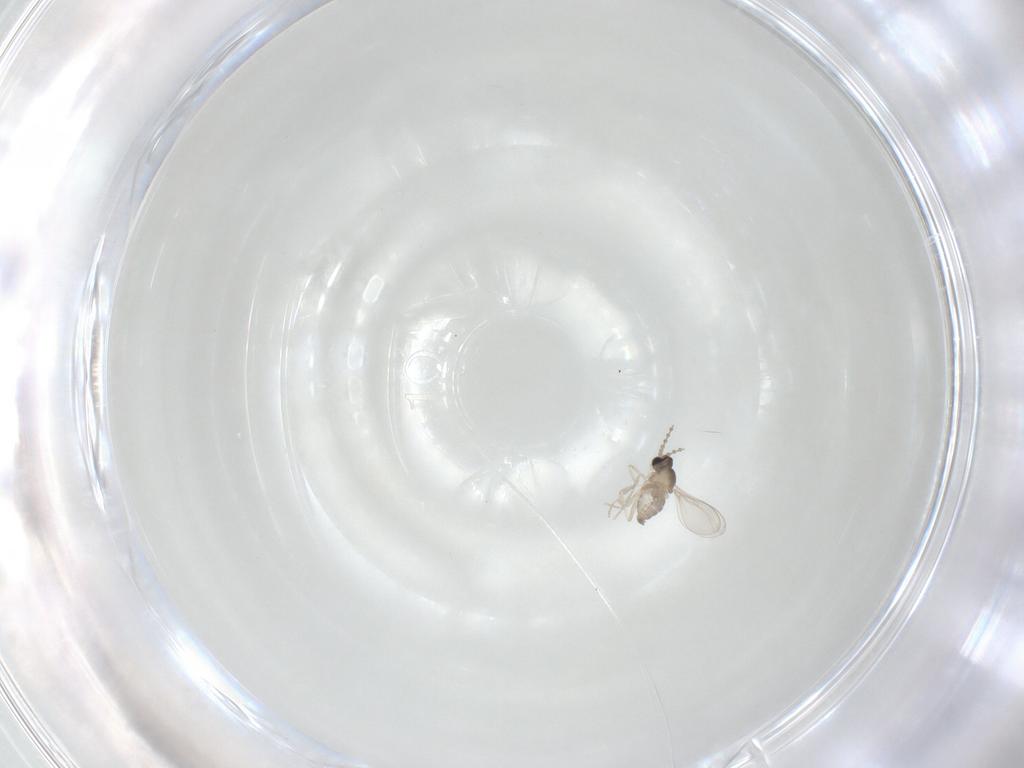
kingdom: Animalia
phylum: Arthropoda
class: Insecta
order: Diptera
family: Cecidomyiidae
